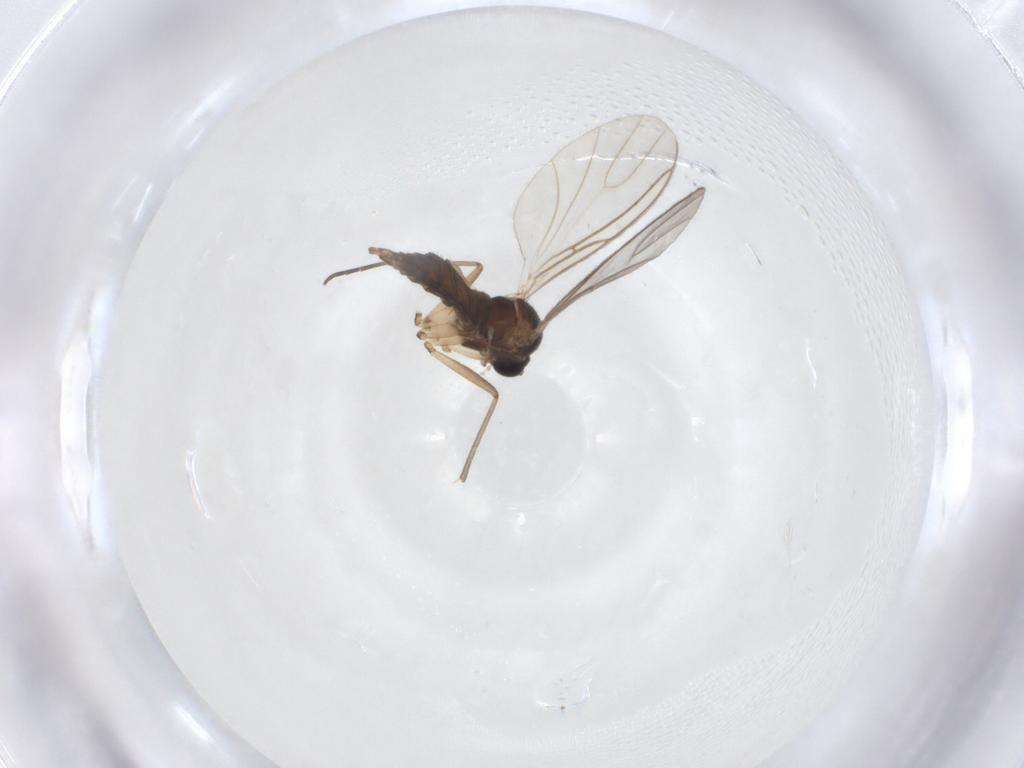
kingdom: Animalia
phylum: Arthropoda
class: Insecta
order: Diptera
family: Sciaridae
